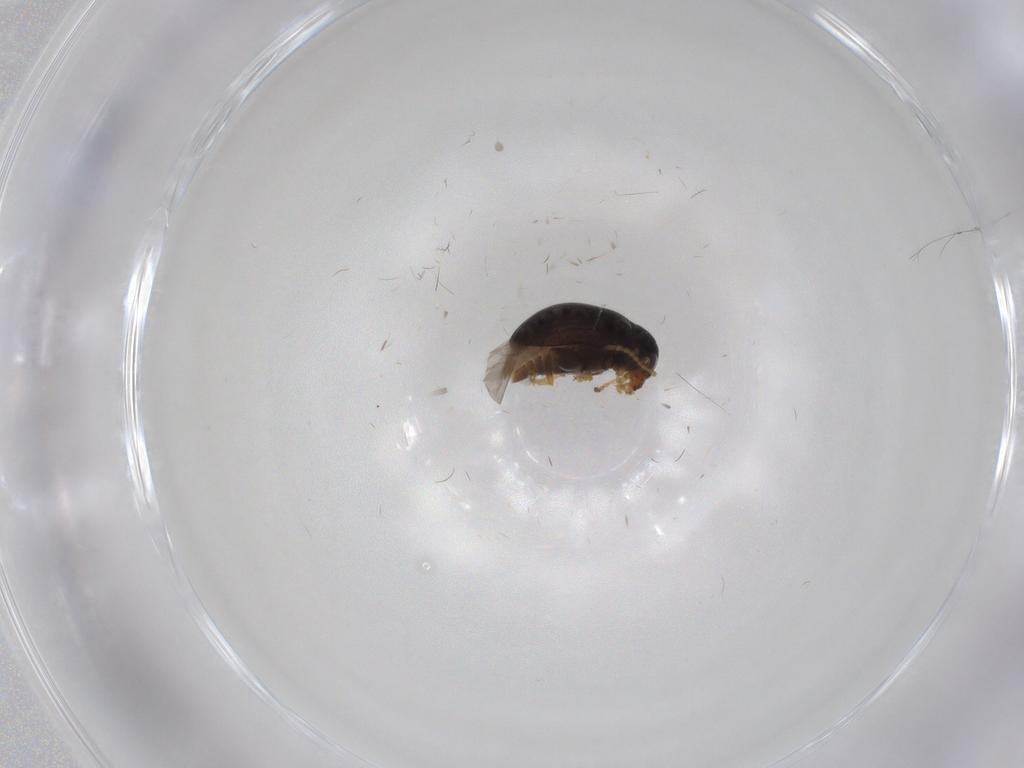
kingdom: Animalia
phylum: Arthropoda
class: Insecta
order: Coleoptera
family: Chrysomelidae
